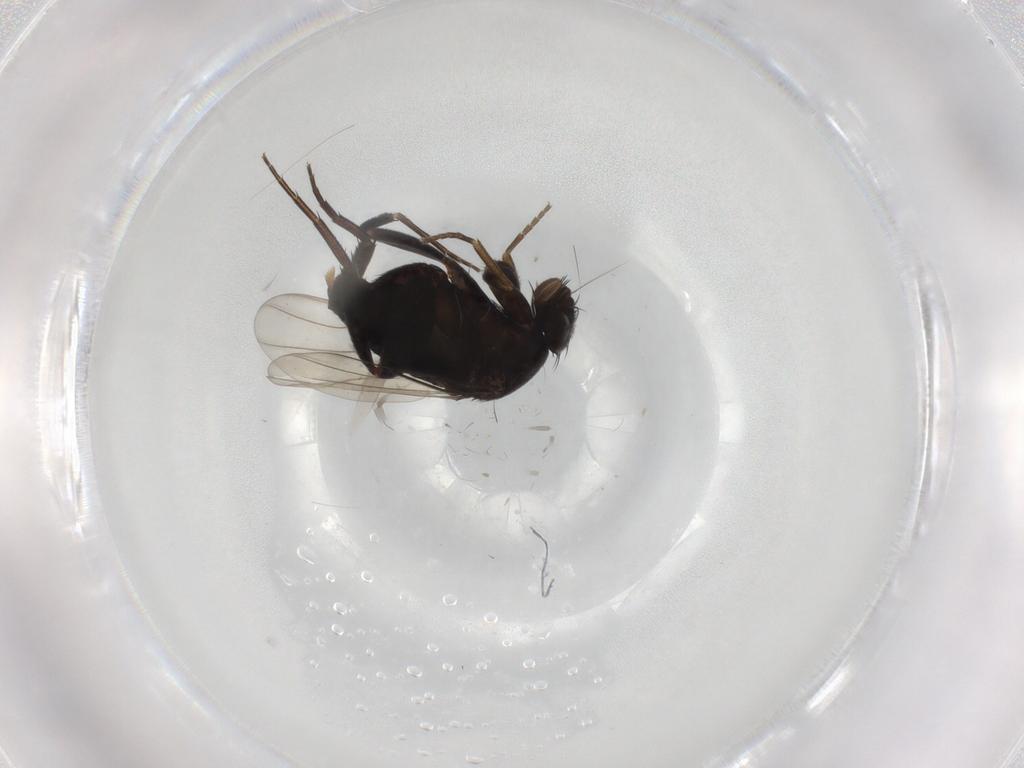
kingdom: Animalia
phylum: Arthropoda
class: Insecta
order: Diptera
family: Phoridae
